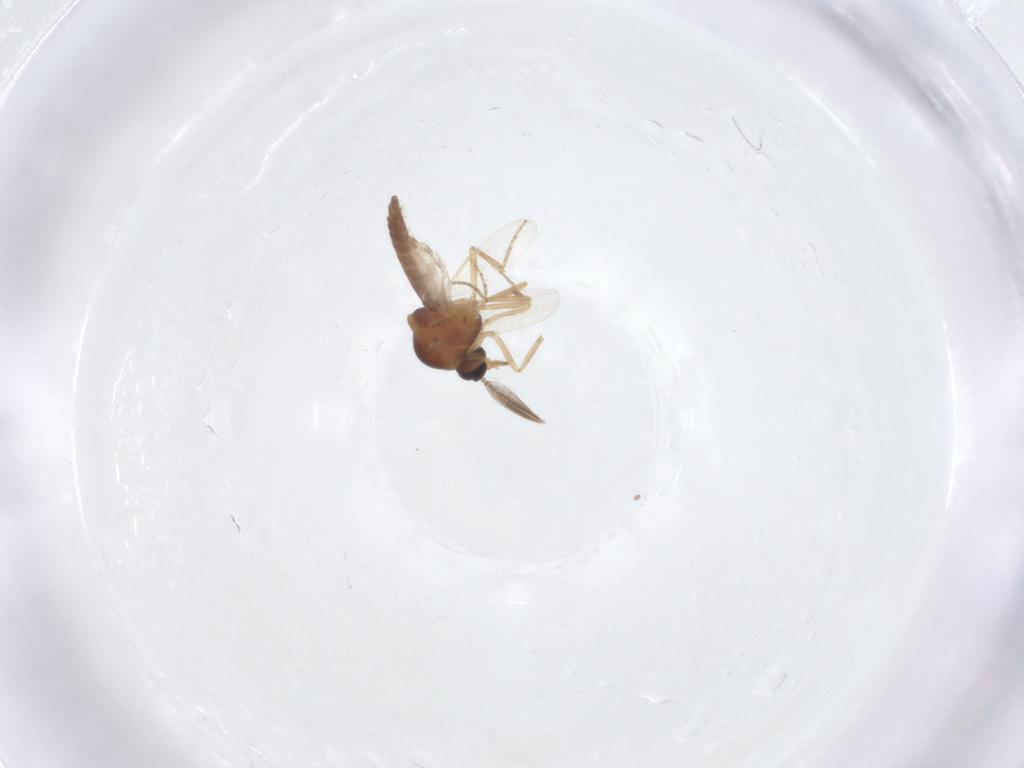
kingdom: Animalia
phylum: Arthropoda
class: Insecta
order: Diptera
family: Ceratopogonidae
